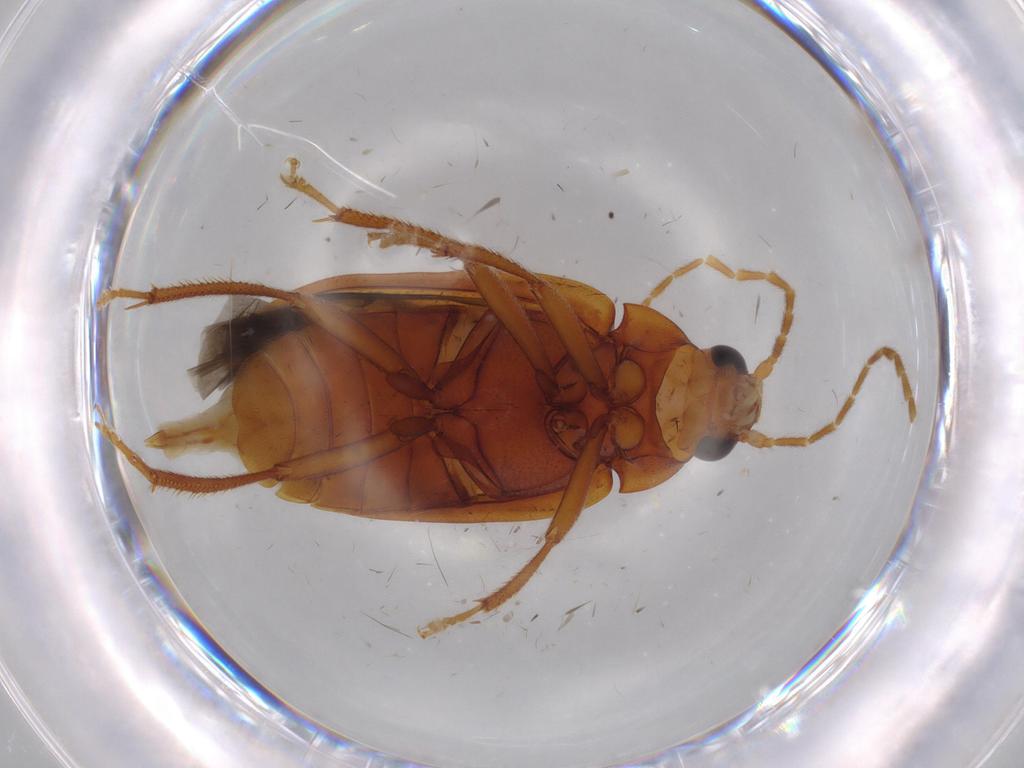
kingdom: Animalia
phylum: Arthropoda
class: Insecta
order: Coleoptera
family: Ptilodactylidae
